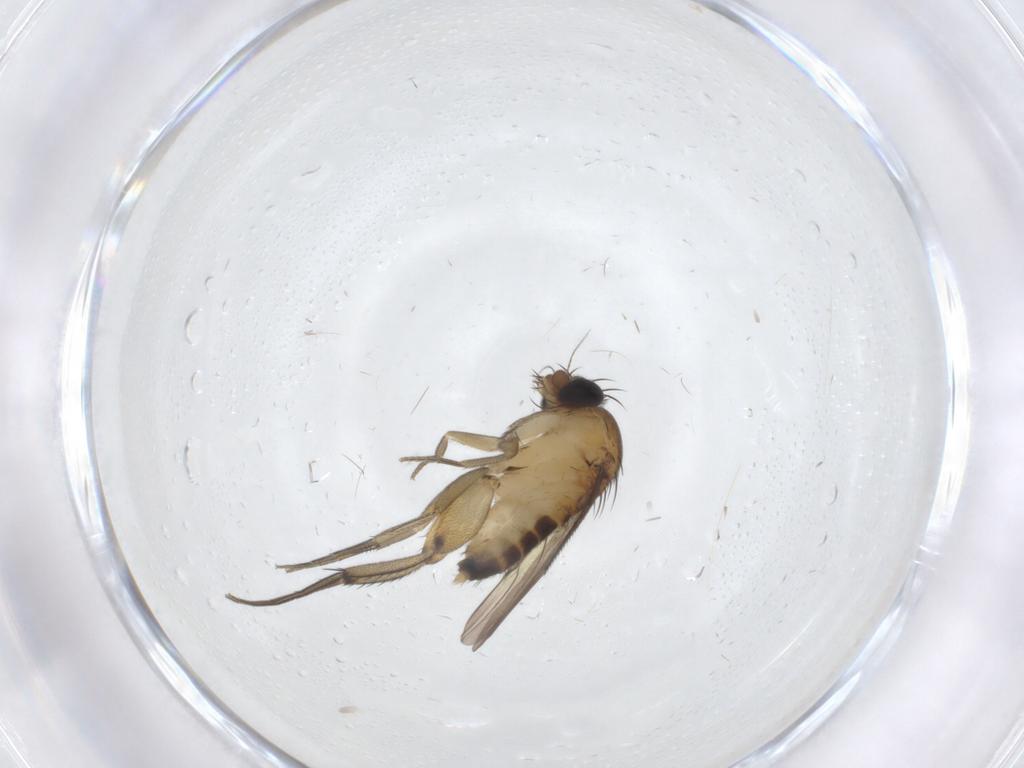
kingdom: Animalia
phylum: Arthropoda
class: Insecta
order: Diptera
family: Phoridae
